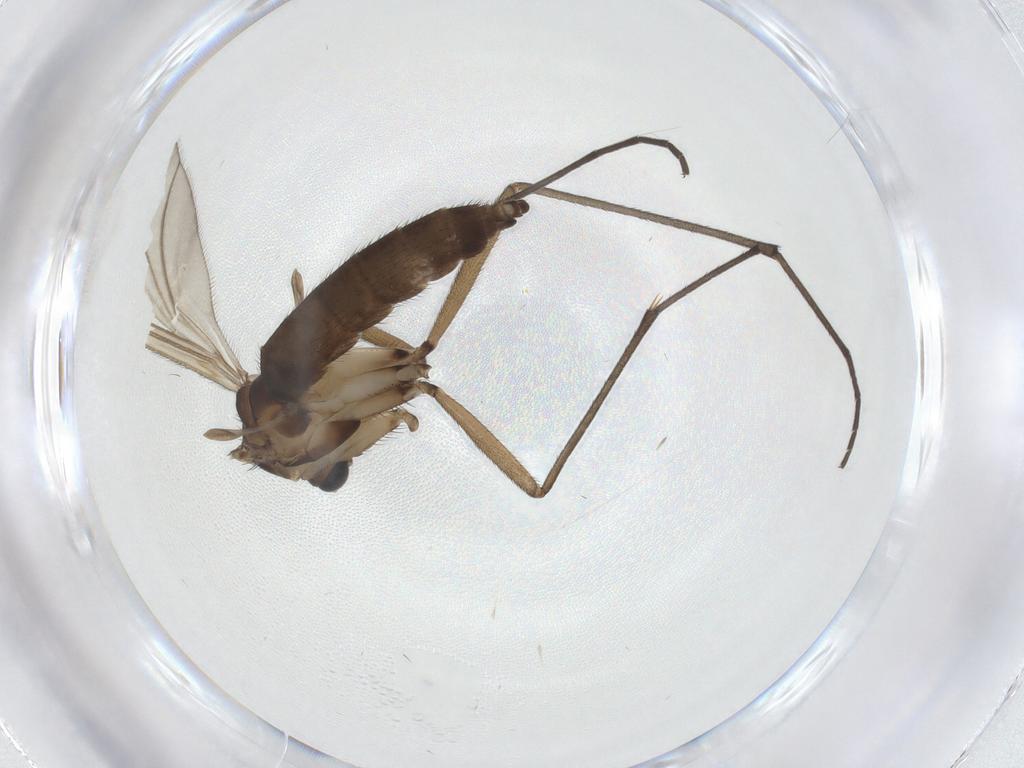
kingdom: Animalia
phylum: Arthropoda
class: Insecta
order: Diptera
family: Sciaridae
